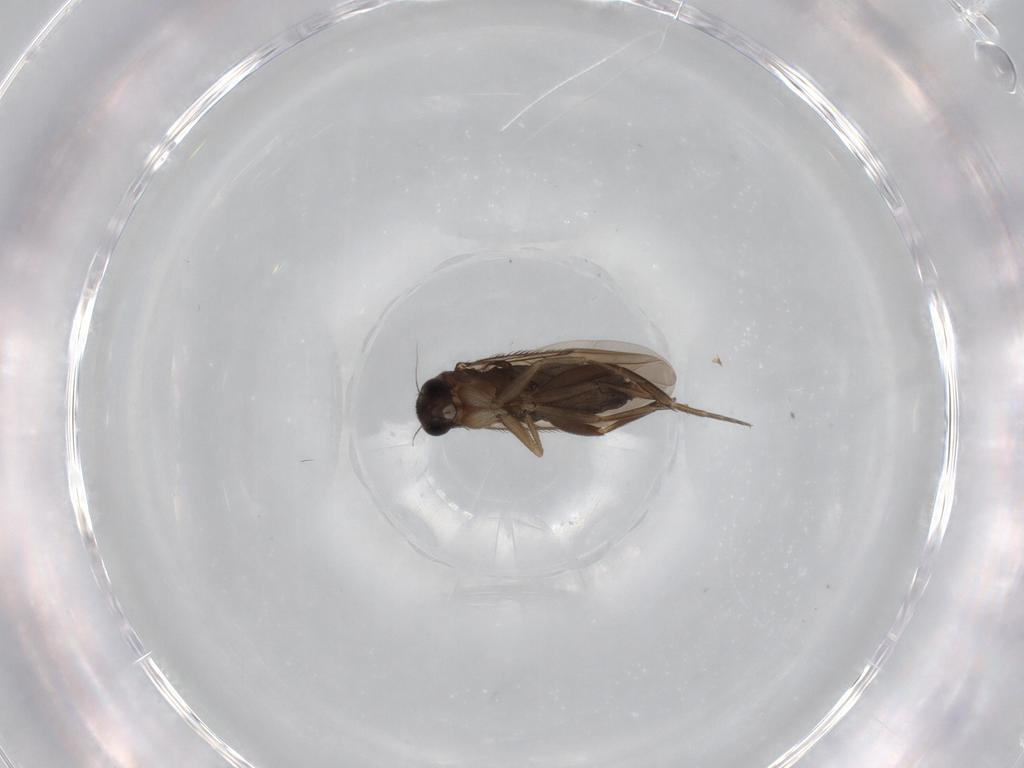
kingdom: Animalia
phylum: Arthropoda
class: Insecta
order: Diptera
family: Phoridae
